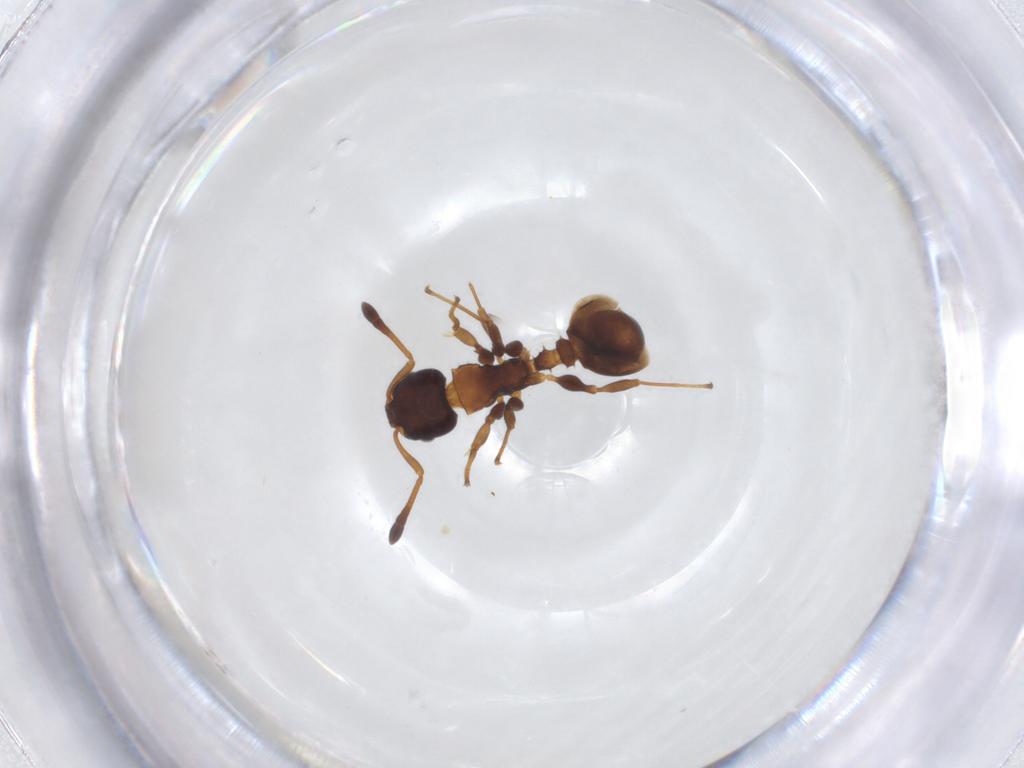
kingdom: Animalia
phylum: Arthropoda
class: Insecta
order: Hymenoptera
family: Formicidae
